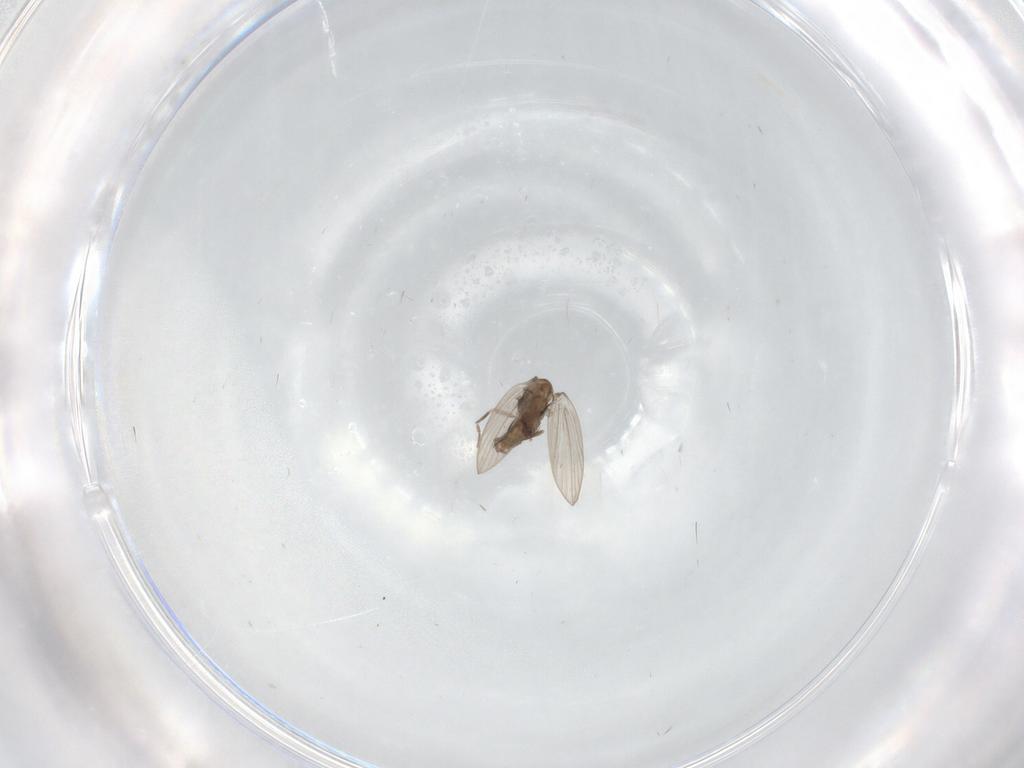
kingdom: Animalia
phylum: Arthropoda
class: Insecta
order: Diptera
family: Psychodidae
